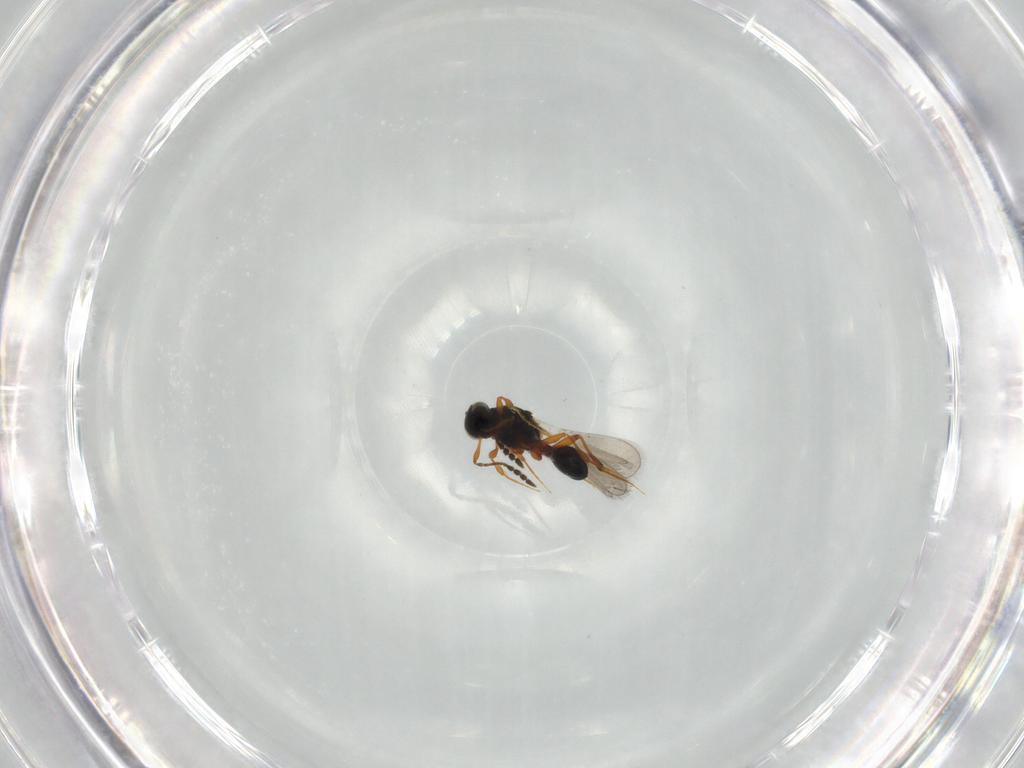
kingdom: Animalia
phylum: Arthropoda
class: Insecta
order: Hymenoptera
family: Platygastridae
